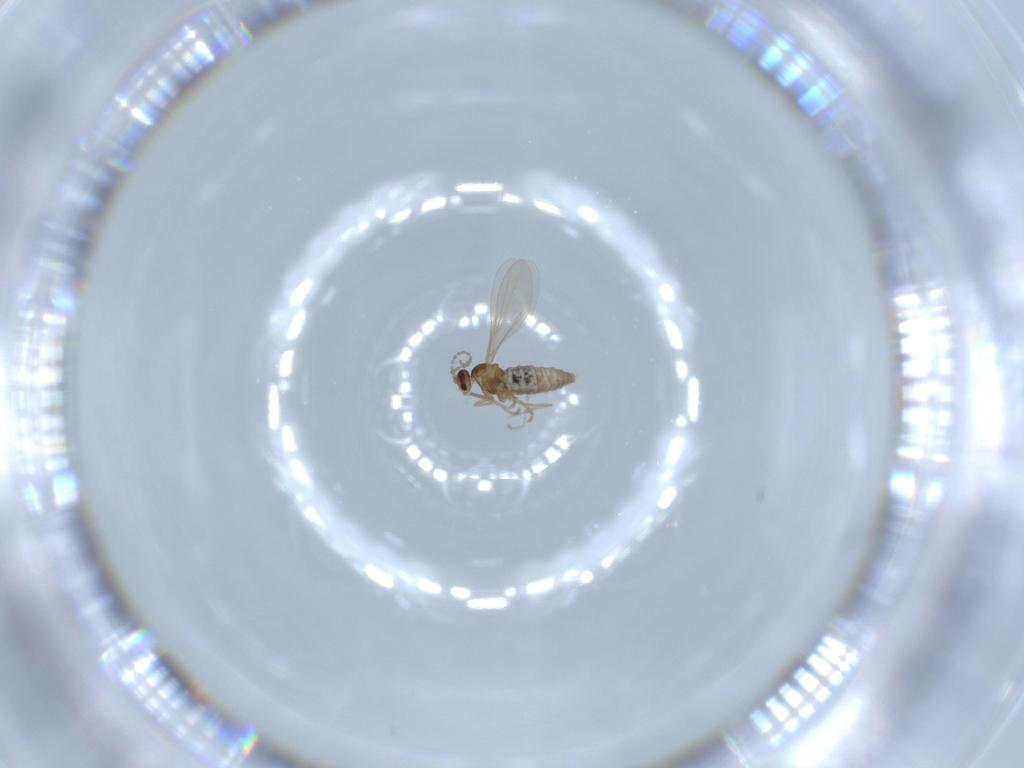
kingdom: Animalia
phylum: Arthropoda
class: Insecta
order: Diptera
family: Cecidomyiidae
